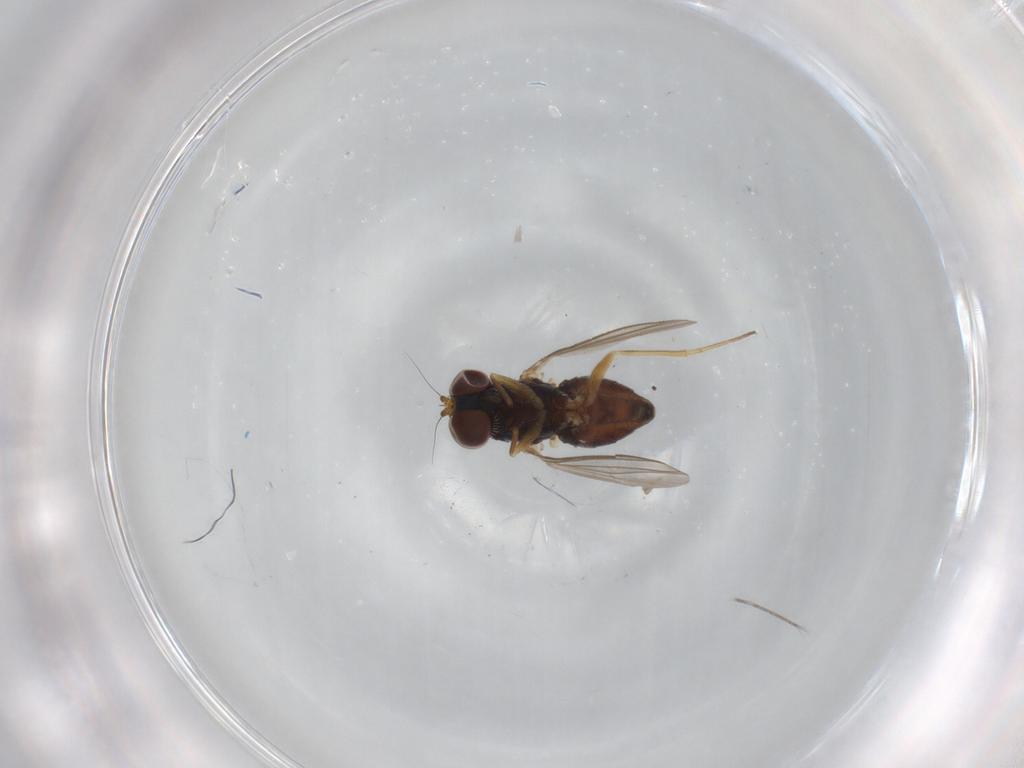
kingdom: Animalia
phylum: Arthropoda
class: Insecta
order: Diptera
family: Dolichopodidae
